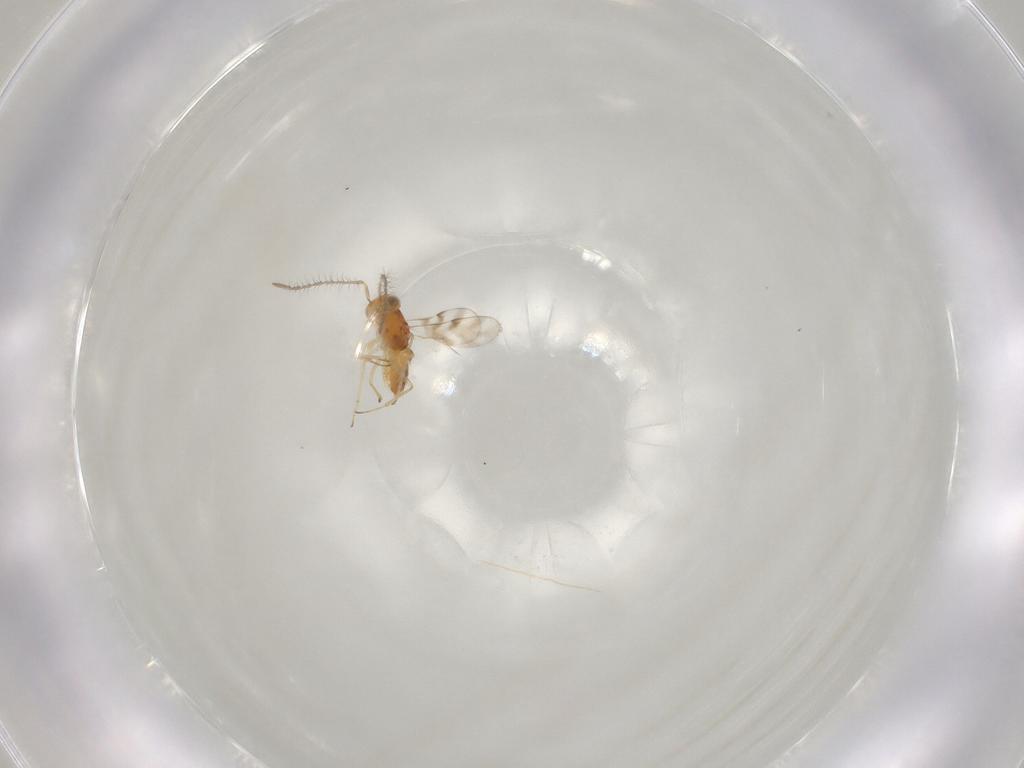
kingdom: Animalia
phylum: Arthropoda
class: Insecta
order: Hymenoptera
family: Encyrtidae
